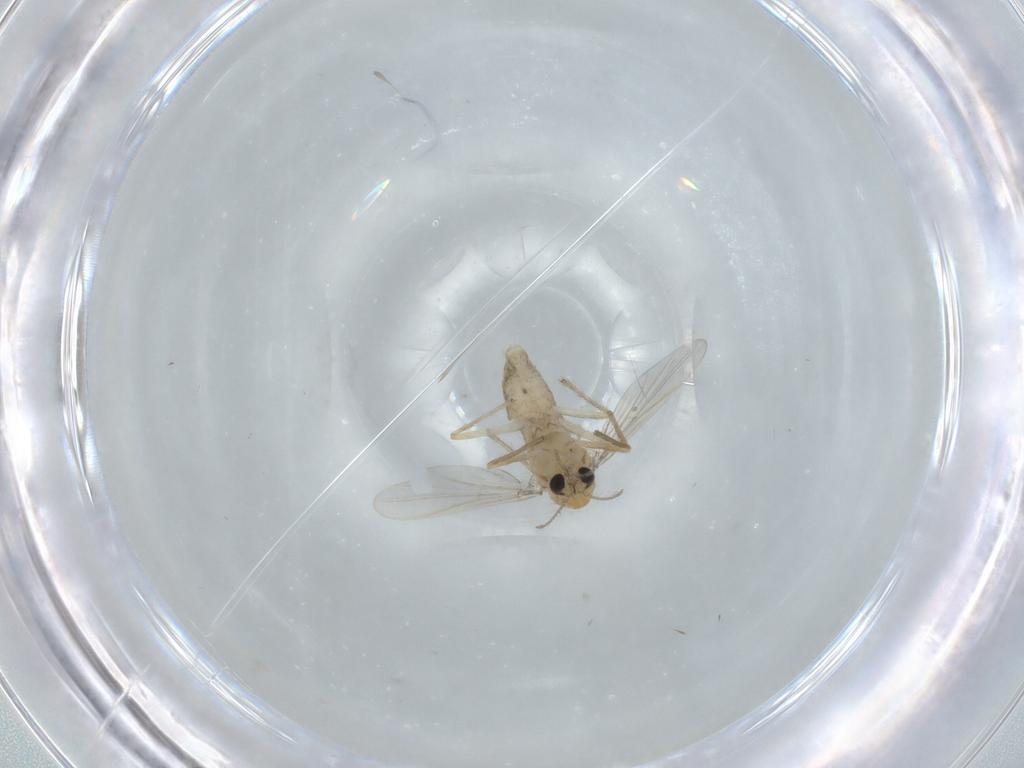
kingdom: Animalia
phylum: Arthropoda
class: Insecta
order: Diptera
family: Chironomidae
